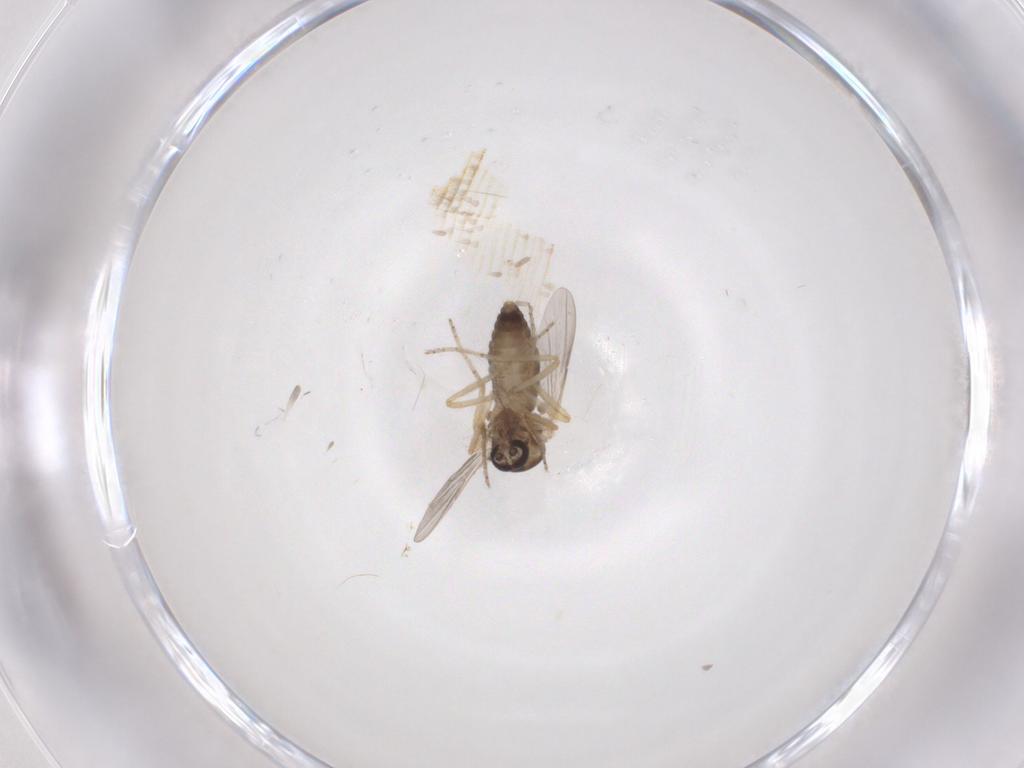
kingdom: Animalia
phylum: Arthropoda
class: Insecta
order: Diptera
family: Ceratopogonidae
